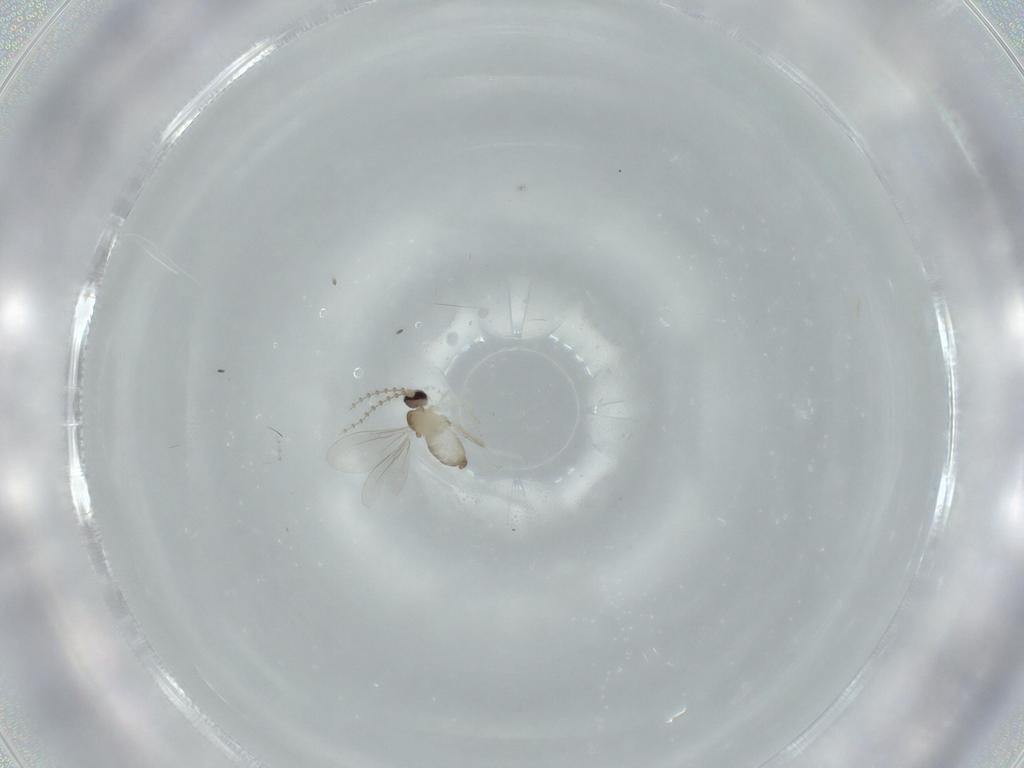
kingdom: Animalia
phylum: Arthropoda
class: Insecta
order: Diptera
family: Cecidomyiidae
